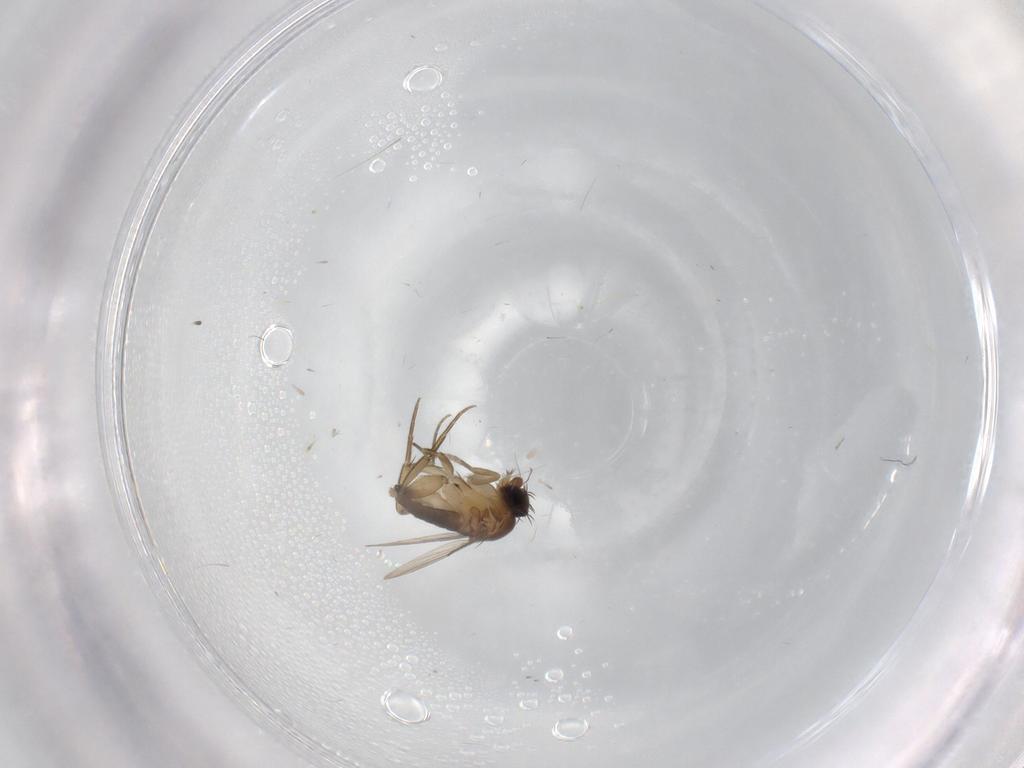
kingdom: Animalia
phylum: Arthropoda
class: Insecta
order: Diptera
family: Phoridae
